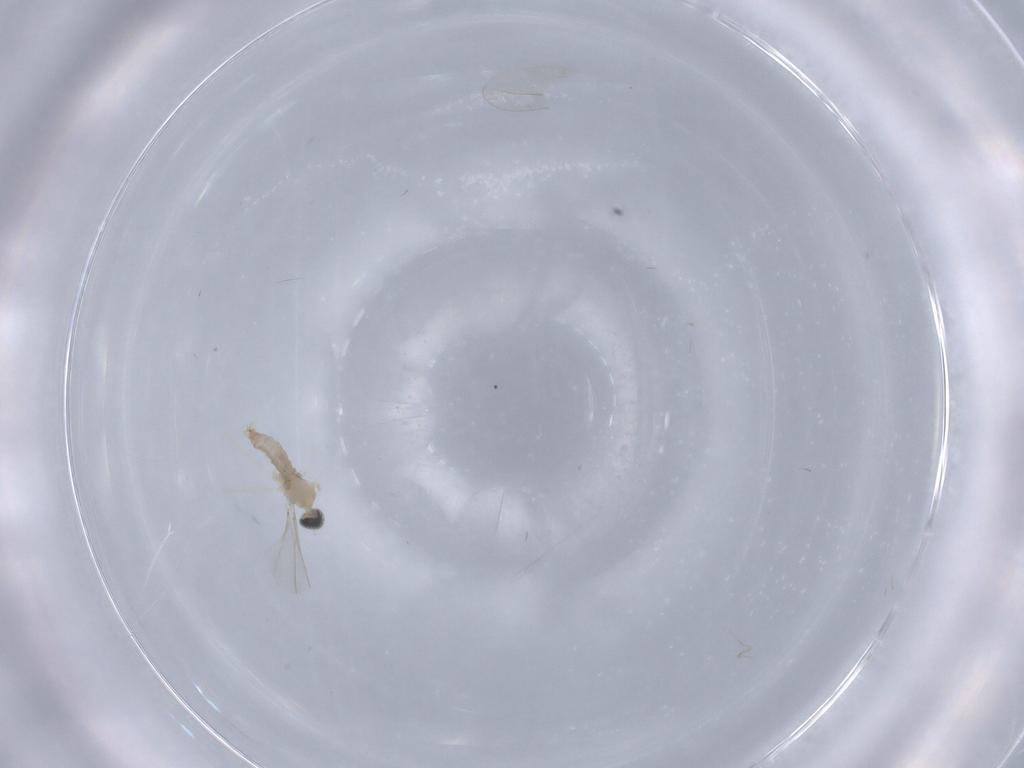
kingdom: Animalia
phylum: Arthropoda
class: Insecta
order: Diptera
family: Cecidomyiidae
